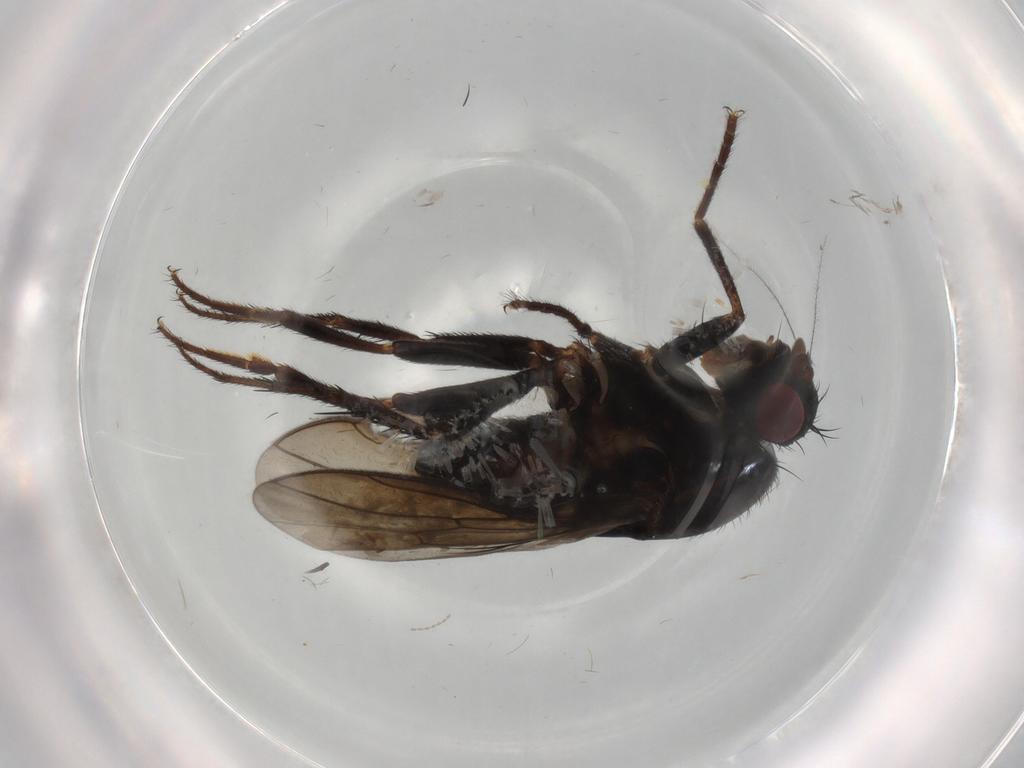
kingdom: Animalia
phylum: Arthropoda
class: Insecta
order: Diptera
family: Sphaeroceridae
